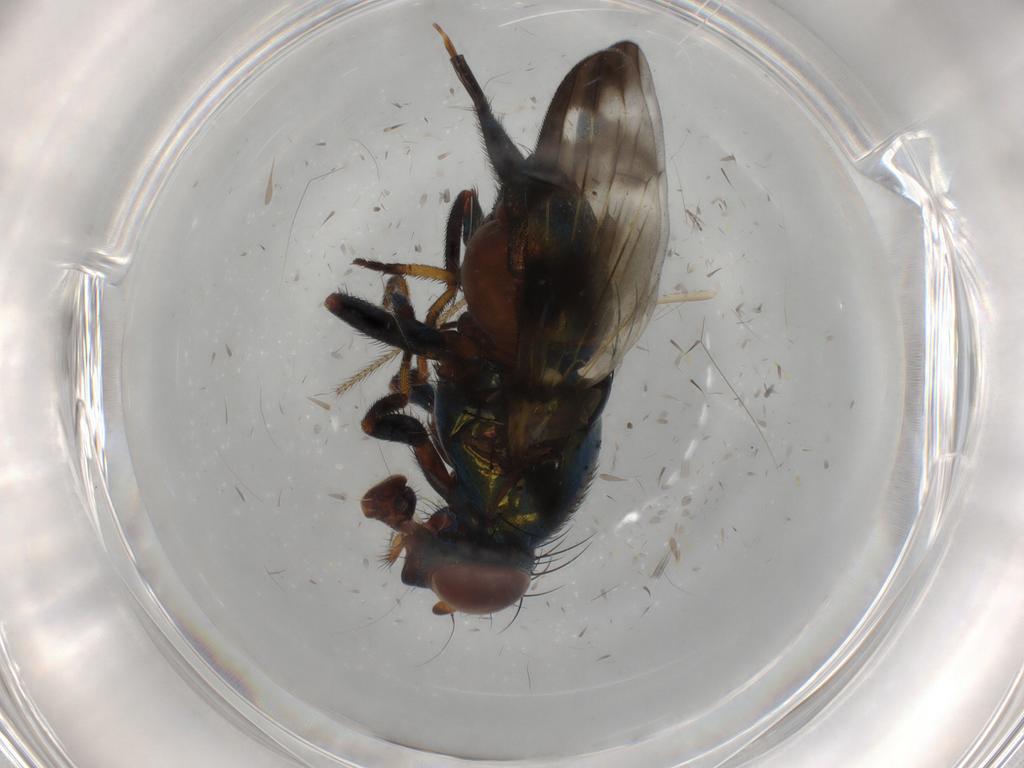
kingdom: Animalia
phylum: Arthropoda
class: Insecta
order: Diptera
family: Ulidiidae
